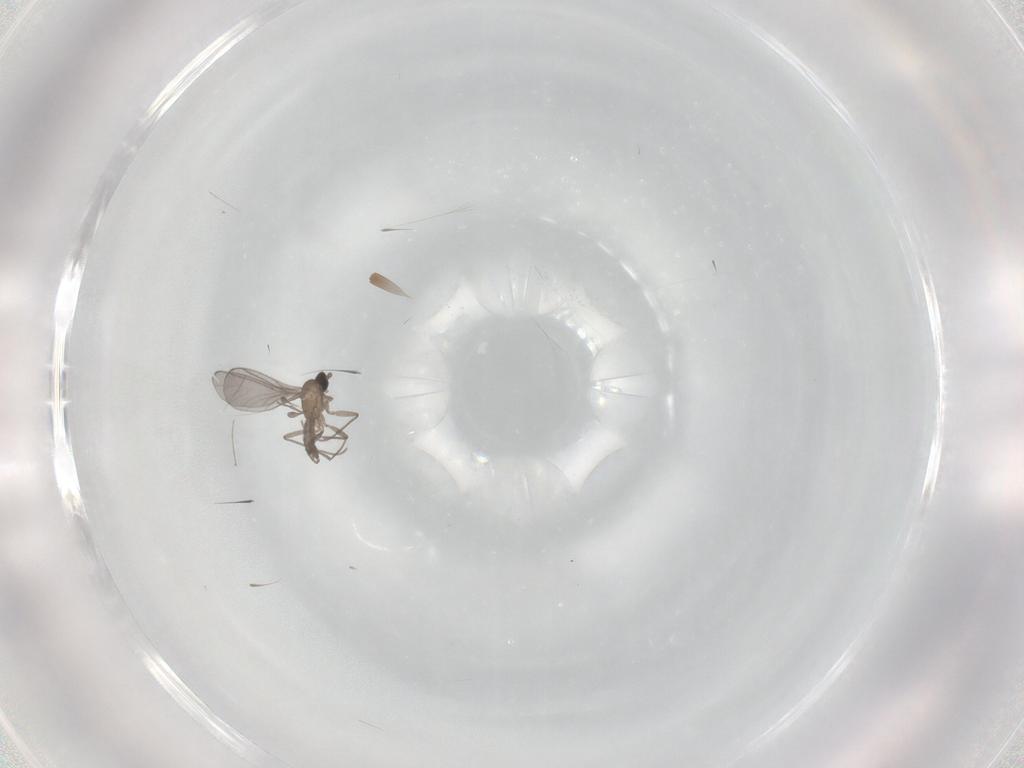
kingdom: Animalia
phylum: Arthropoda
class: Insecta
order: Diptera
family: Cecidomyiidae
